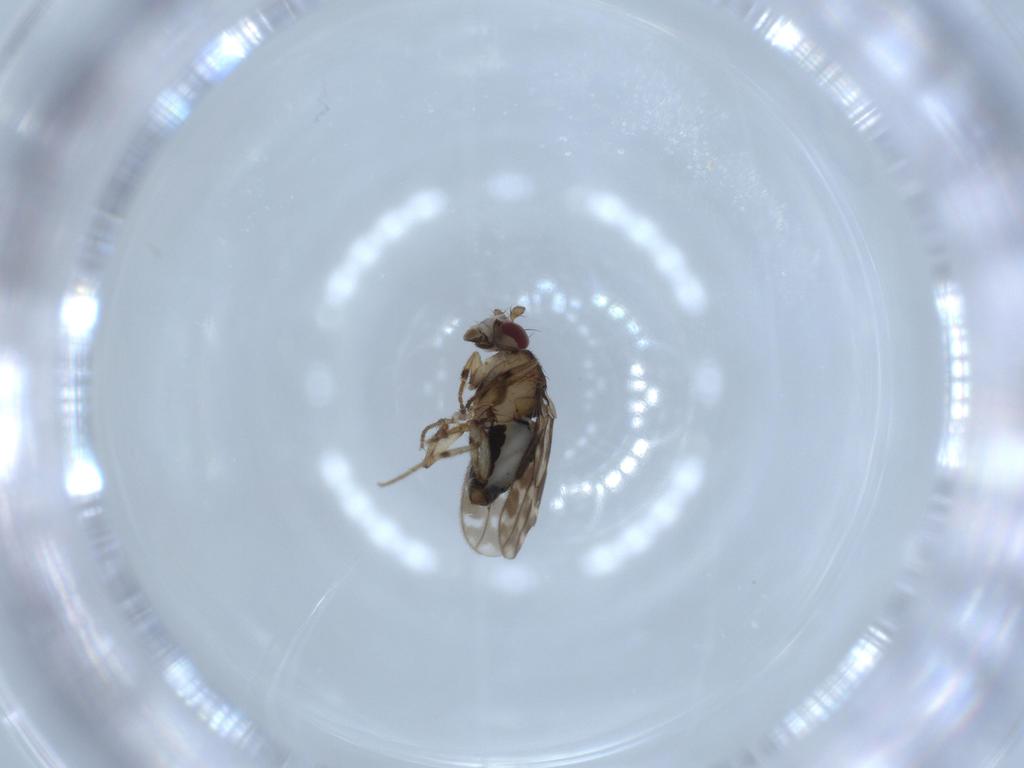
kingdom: Animalia
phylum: Arthropoda
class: Insecta
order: Diptera
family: Sphaeroceridae
